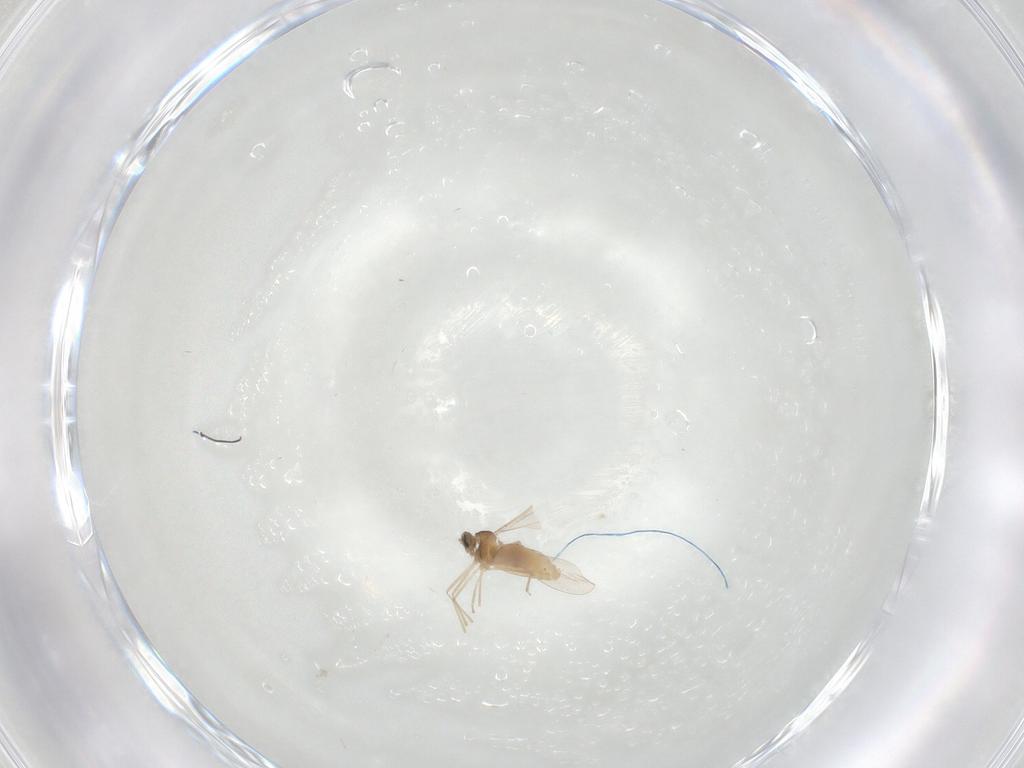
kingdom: Animalia
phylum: Arthropoda
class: Insecta
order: Diptera
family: Cecidomyiidae
